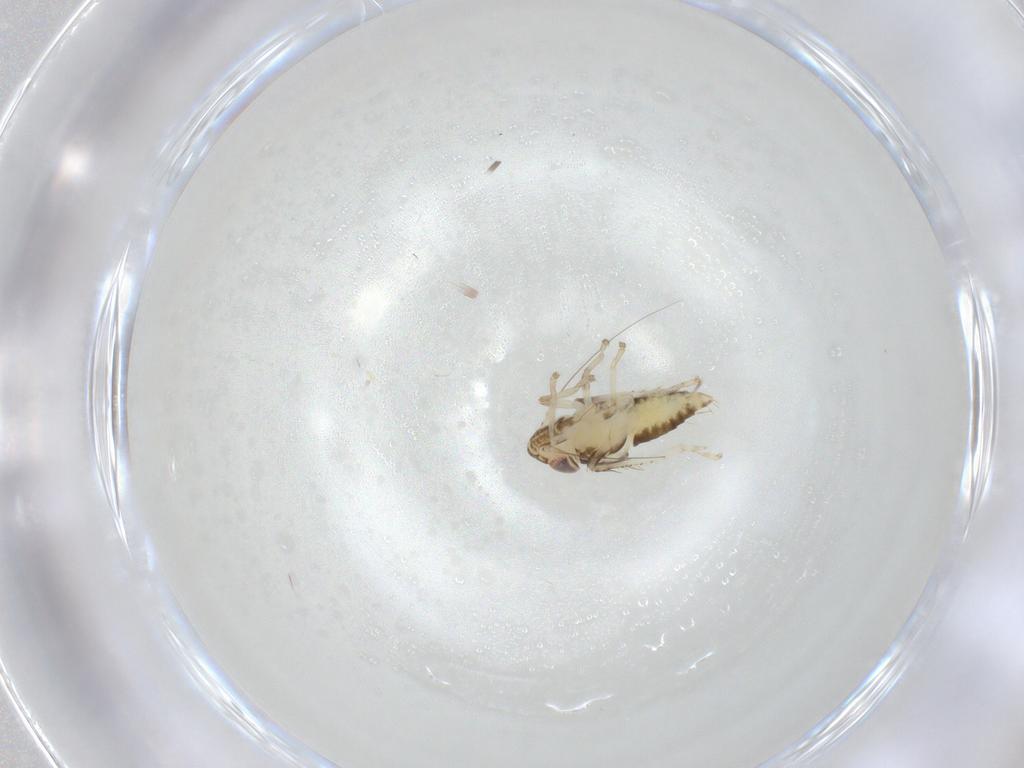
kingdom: Animalia
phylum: Arthropoda
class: Insecta
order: Hemiptera
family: Cicadellidae
